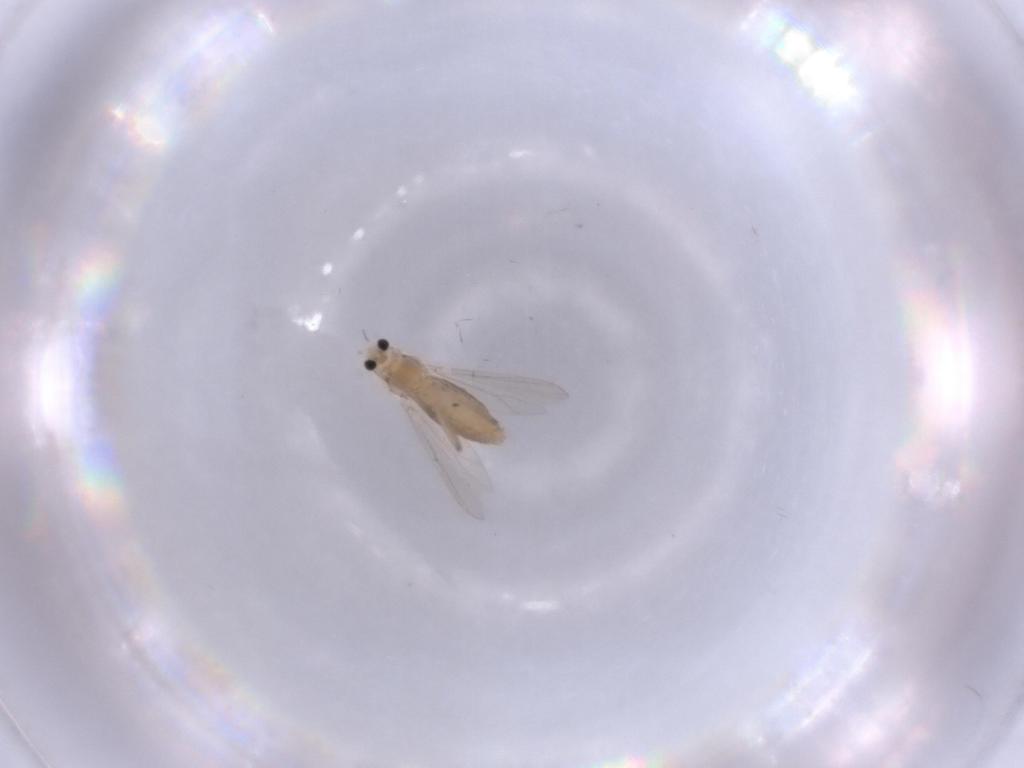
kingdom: Animalia
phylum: Arthropoda
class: Insecta
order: Diptera
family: Chironomidae
